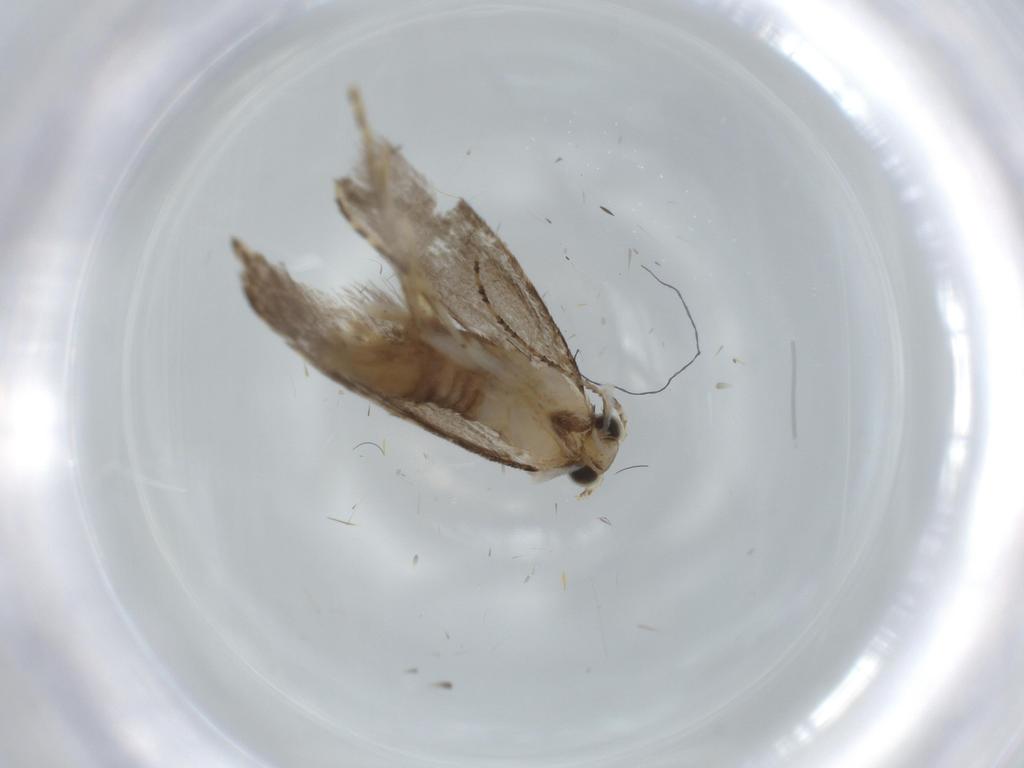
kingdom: Animalia
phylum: Arthropoda
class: Insecta
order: Lepidoptera
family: Tineidae
